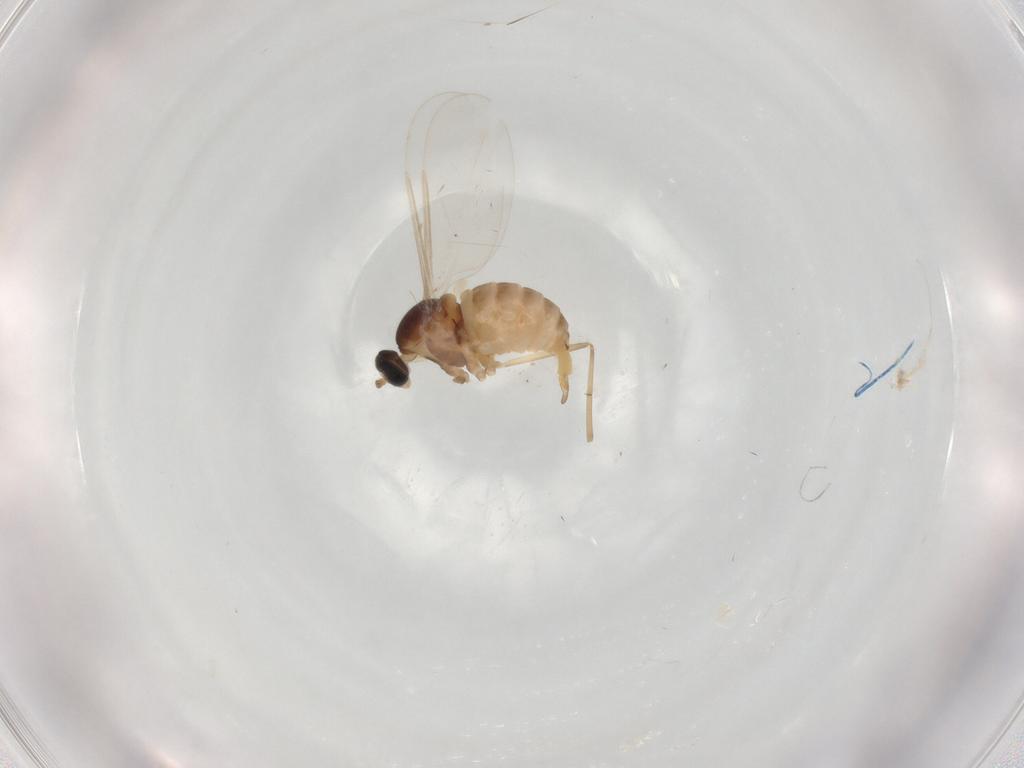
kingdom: Animalia
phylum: Arthropoda
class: Insecta
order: Diptera
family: Cecidomyiidae
